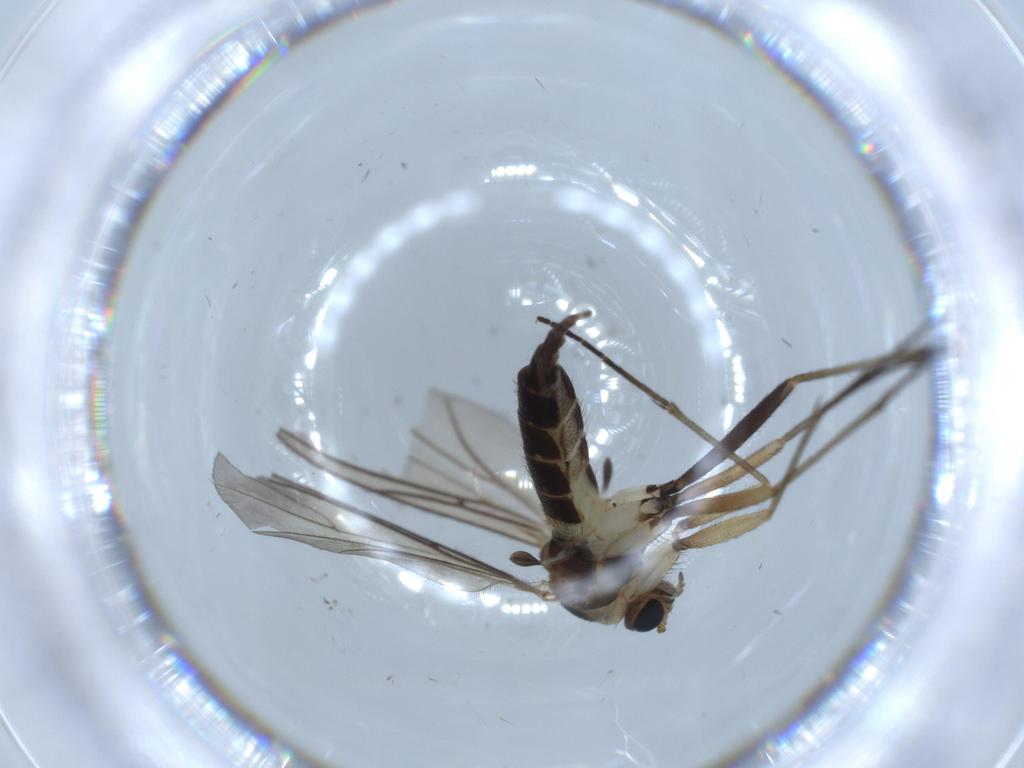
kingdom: Animalia
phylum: Arthropoda
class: Insecta
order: Diptera
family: Sciaridae
